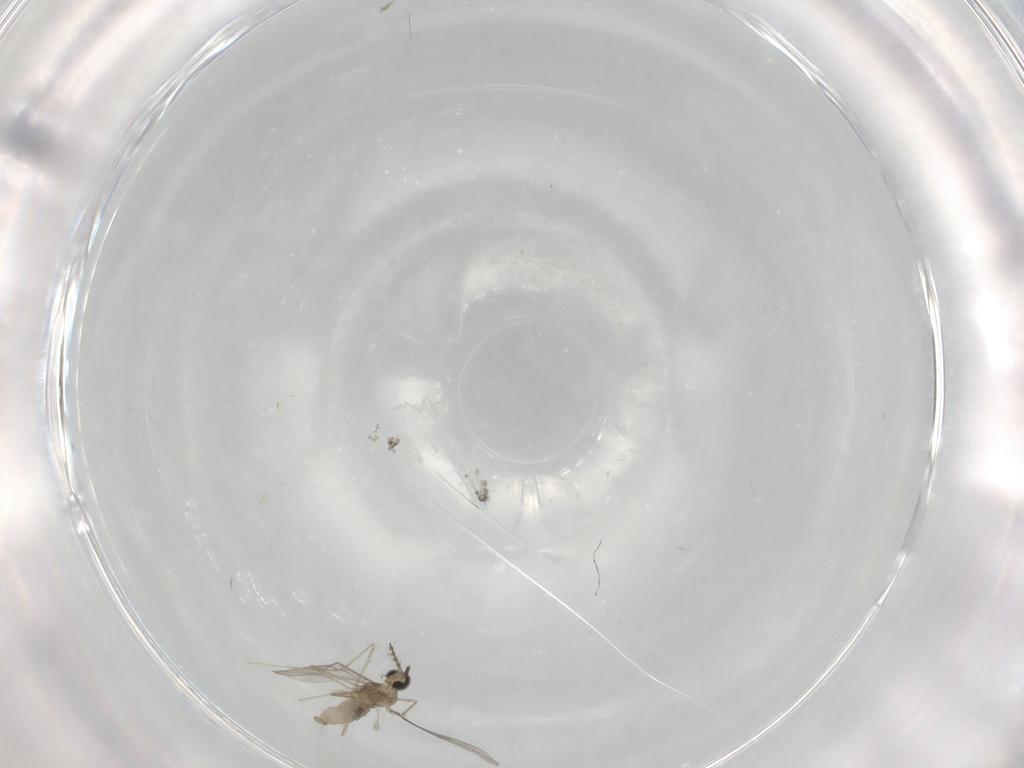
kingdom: Animalia
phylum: Arthropoda
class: Insecta
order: Diptera
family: Cecidomyiidae
